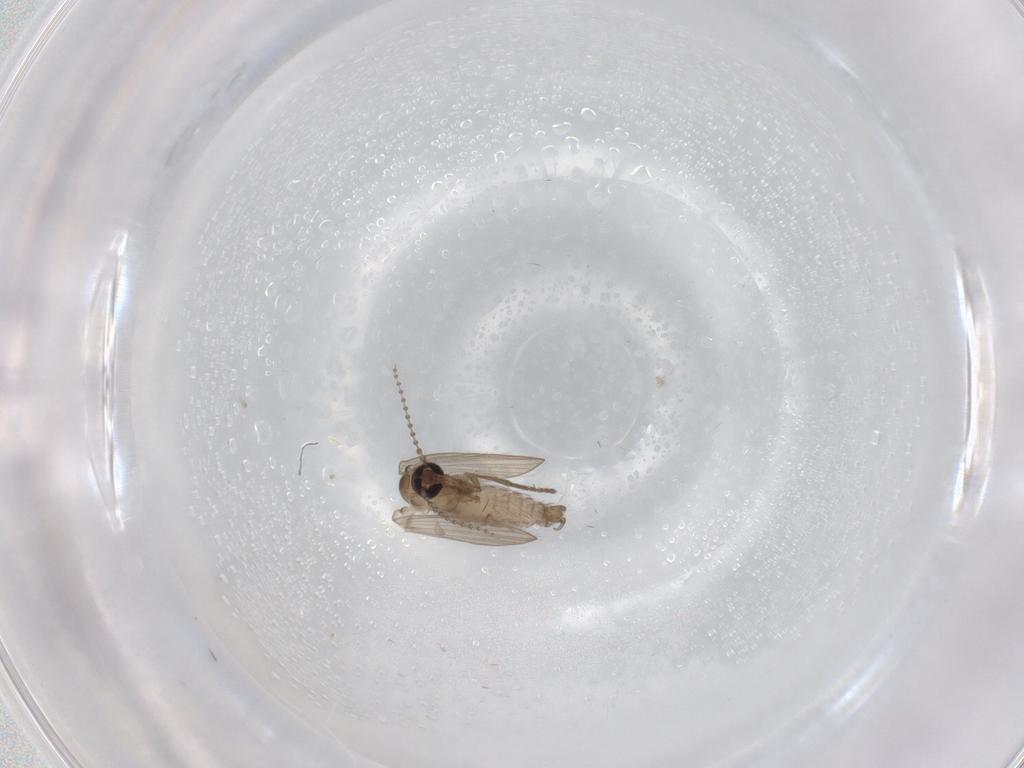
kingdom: Animalia
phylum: Arthropoda
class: Insecta
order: Diptera
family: Psychodidae
